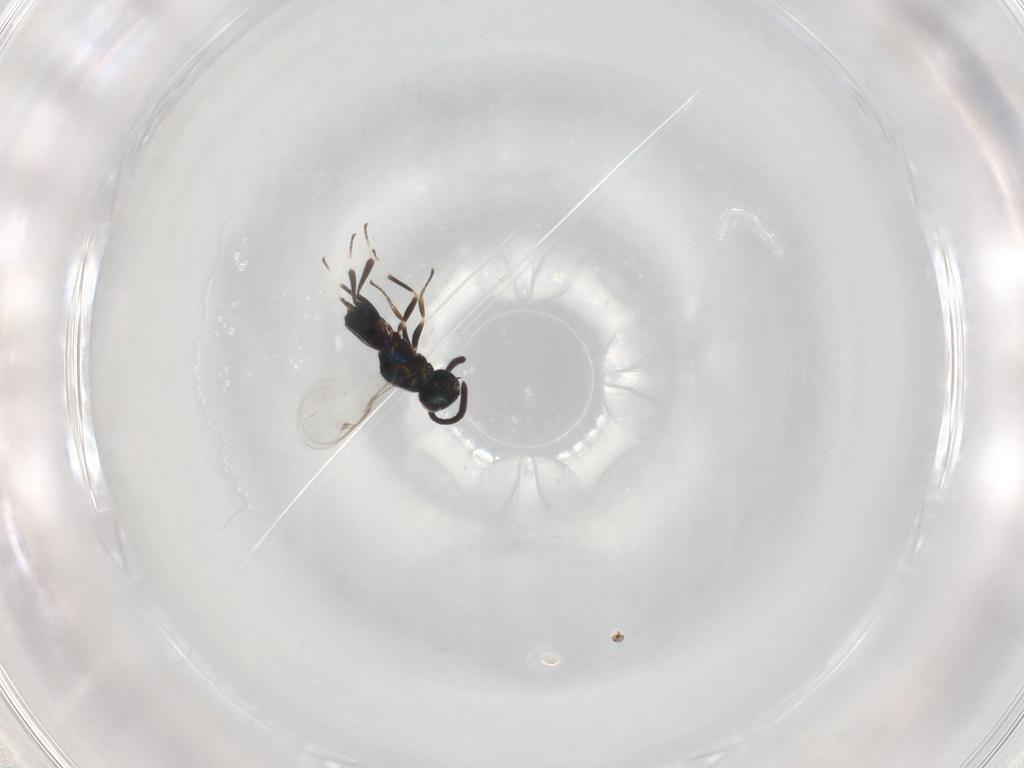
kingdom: Animalia
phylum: Arthropoda
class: Insecta
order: Hymenoptera
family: Eupelmidae
